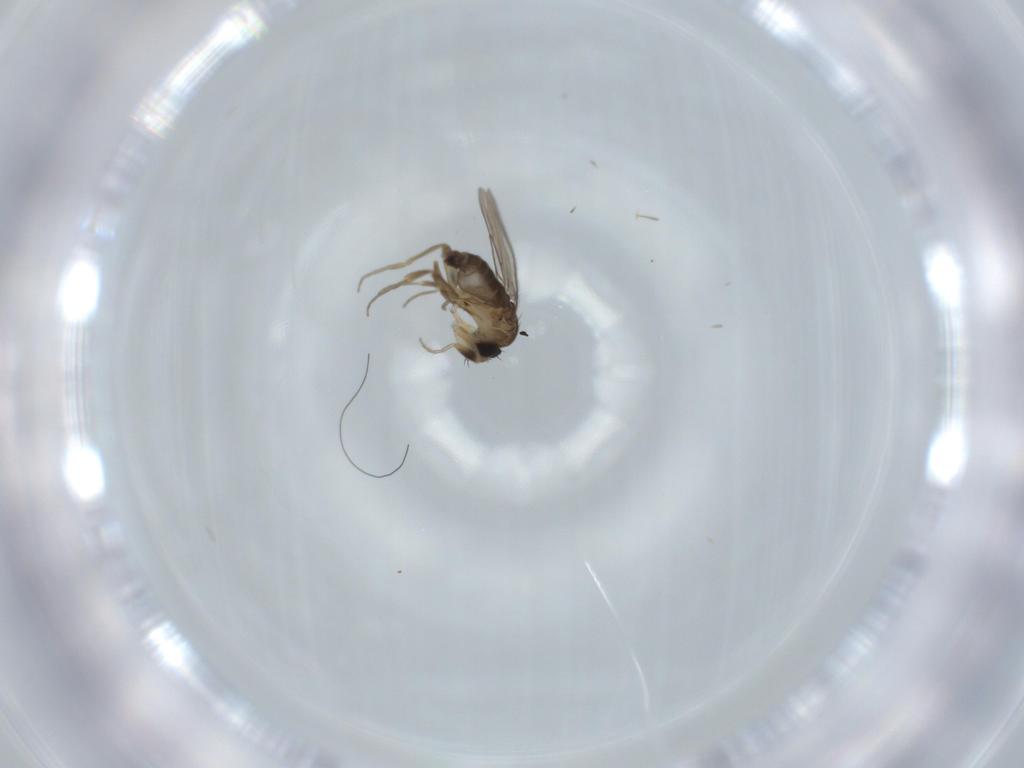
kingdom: Animalia
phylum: Arthropoda
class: Insecta
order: Diptera
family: Phoridae
